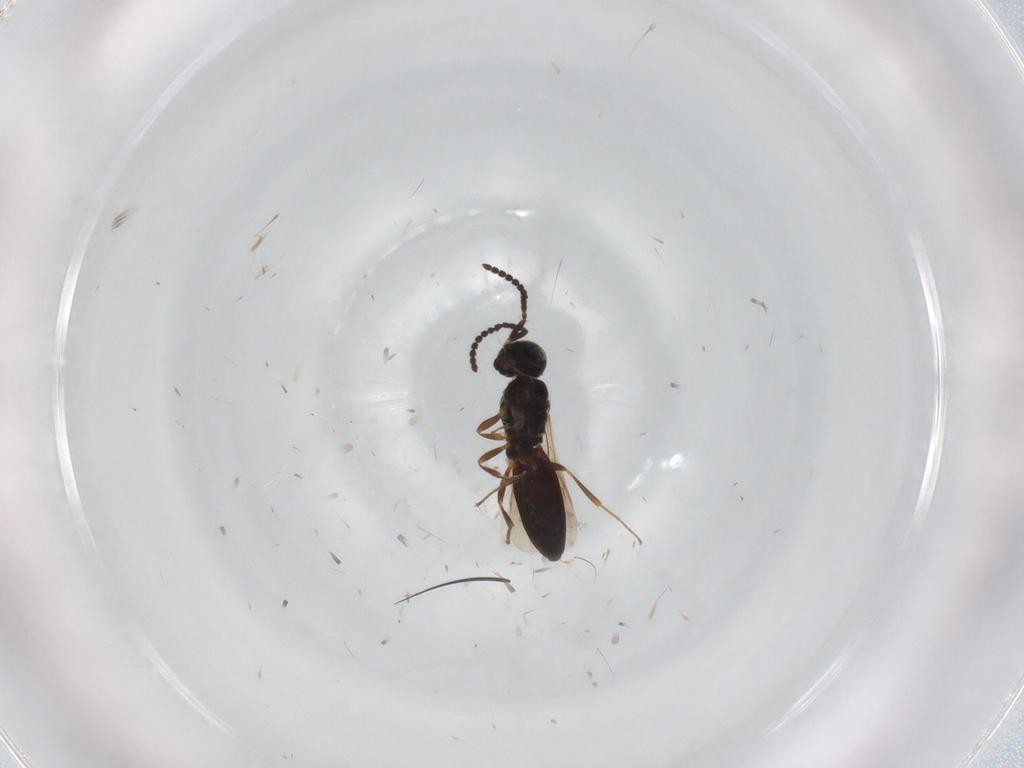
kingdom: Animalia
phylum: Arthropoda
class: Insecta
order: Hymenoptera
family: Scelionidae
